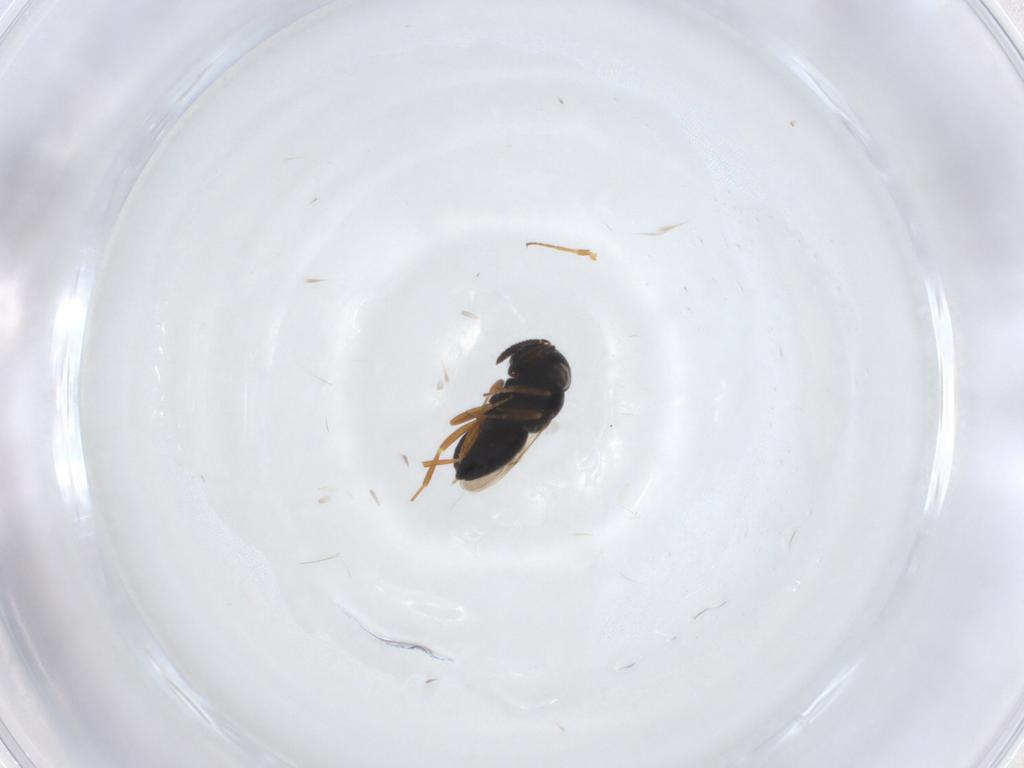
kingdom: Animalia
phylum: Arthropoda
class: Insecta
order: Hymenoptera
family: Scelionidae
